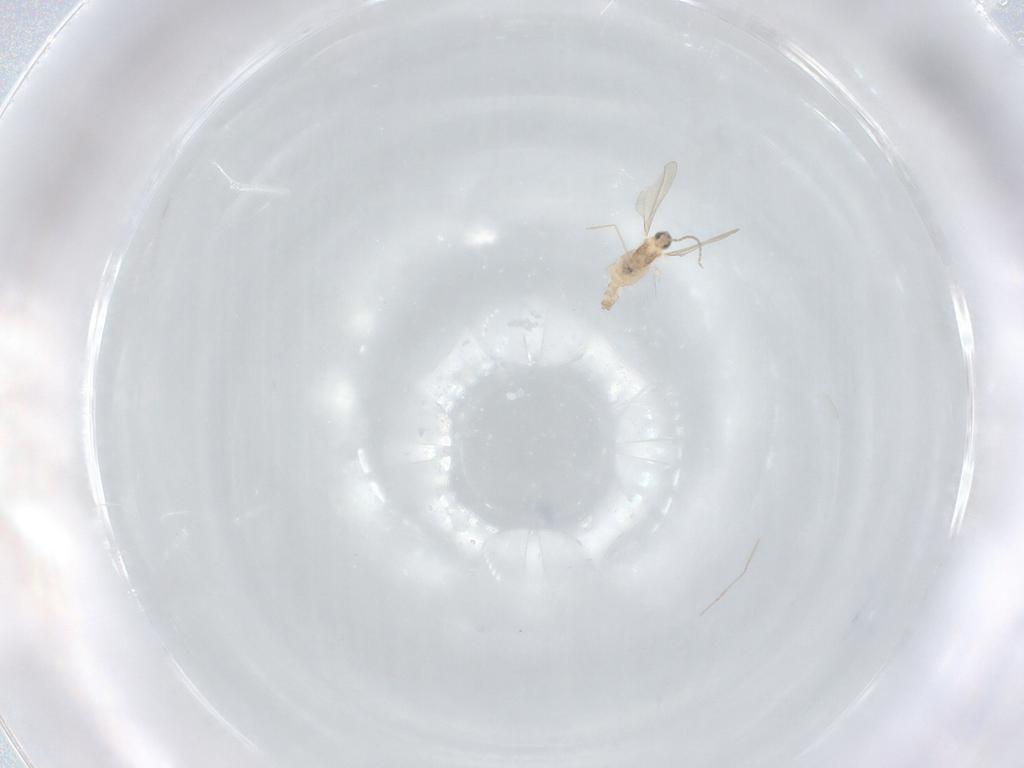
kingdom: Animalia
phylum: Arthropoda
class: Insecta
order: Diptera
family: Cecidomyiidae
